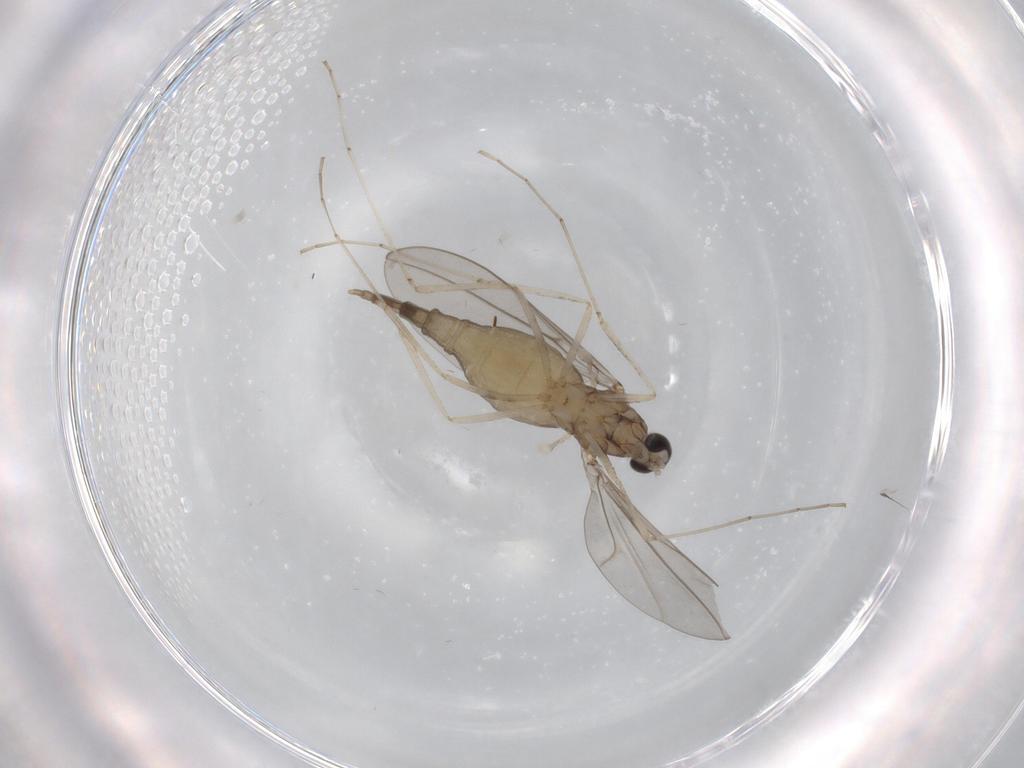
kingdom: Animalia
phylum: Arthropoda
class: Insecta
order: Diptera
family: Cecidomyiidae
